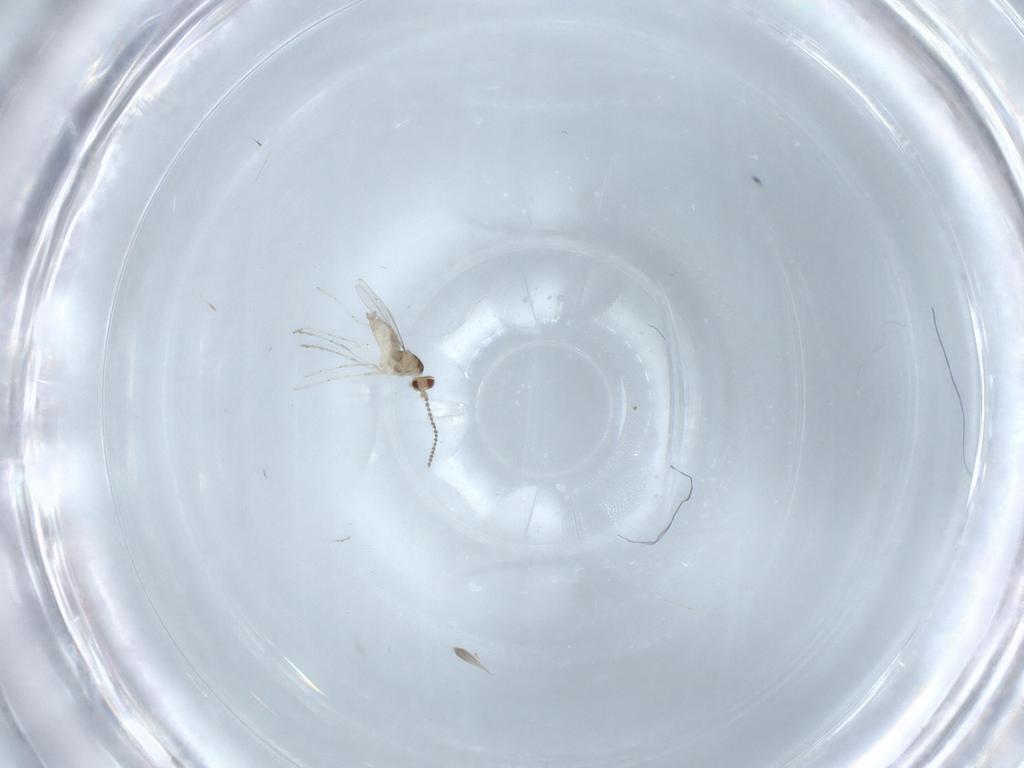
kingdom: Animalia
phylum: Arthropoda
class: Insecta
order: Diptera
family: Cecidomyiidae
